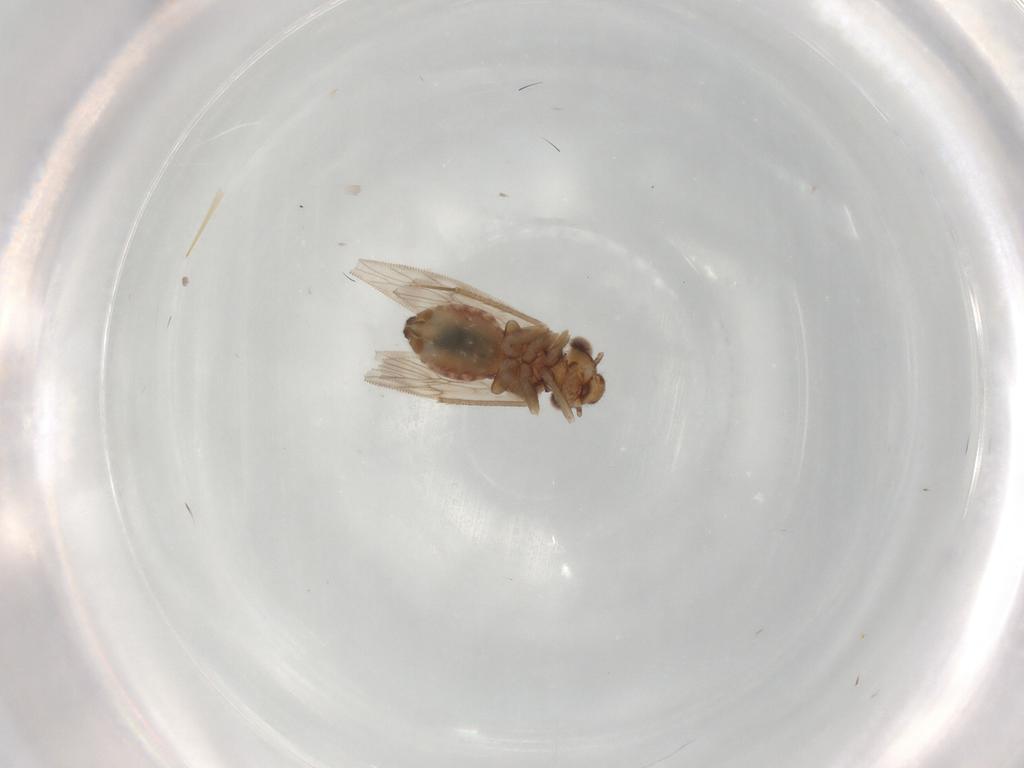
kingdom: Animalia
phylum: Arthropoda
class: Insecta
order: Psocodea
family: Lepidopsocidae
